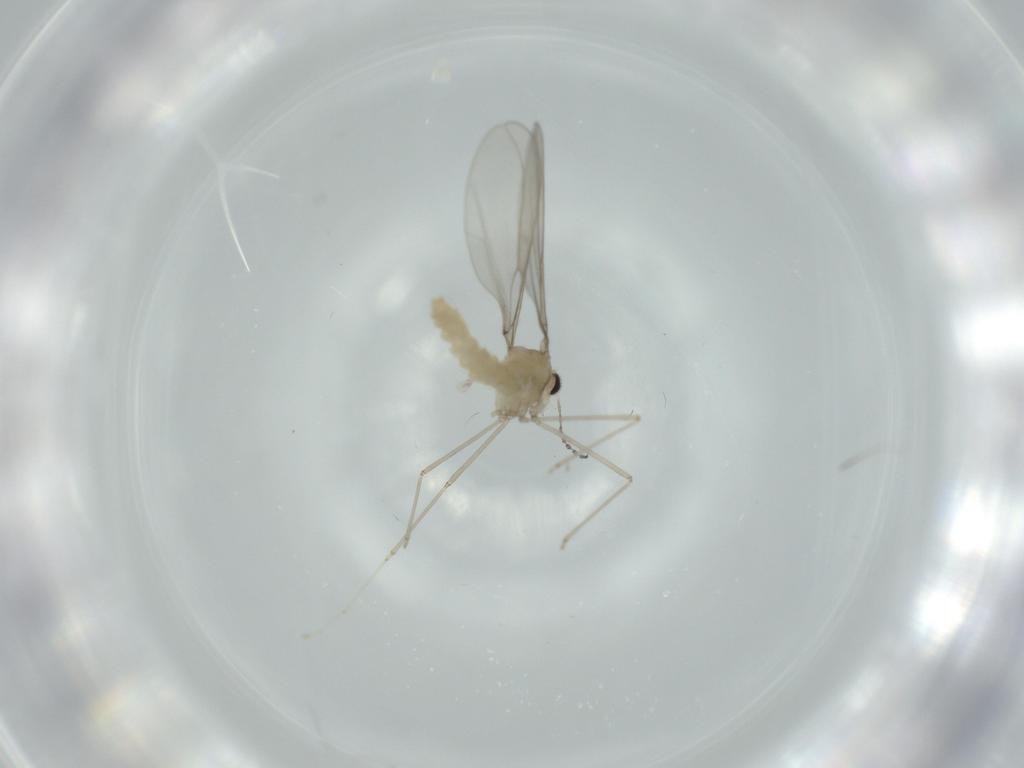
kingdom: Animalia
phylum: Arthropoda
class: Insecta
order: Diptera
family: Cecidomyiidae
